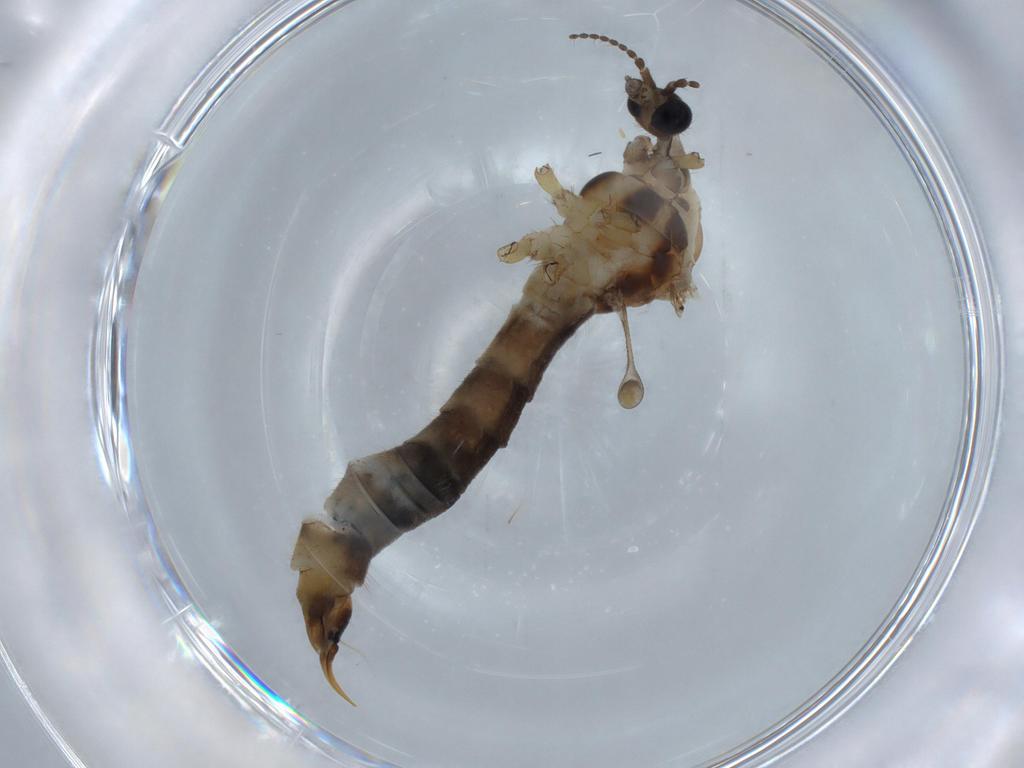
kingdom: Animalia
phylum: Arthropoda
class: Insecta
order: Diptera
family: Limoniidae
